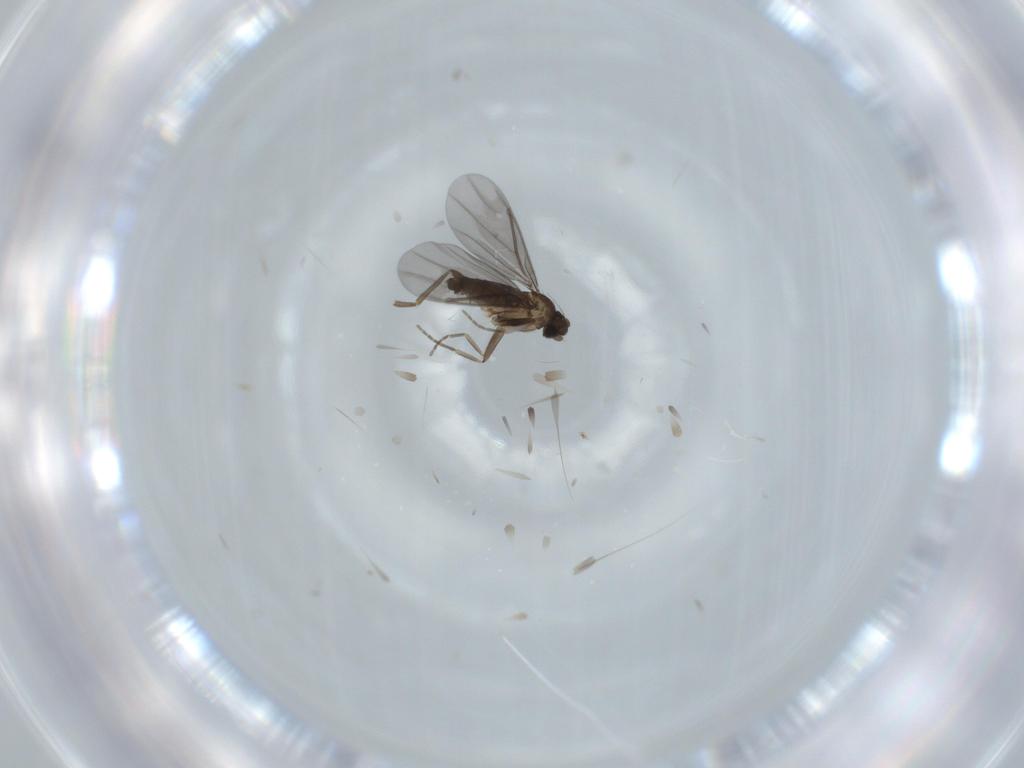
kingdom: Animalia
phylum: Arthropoda
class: Insecta
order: Diptera
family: Phoridae
